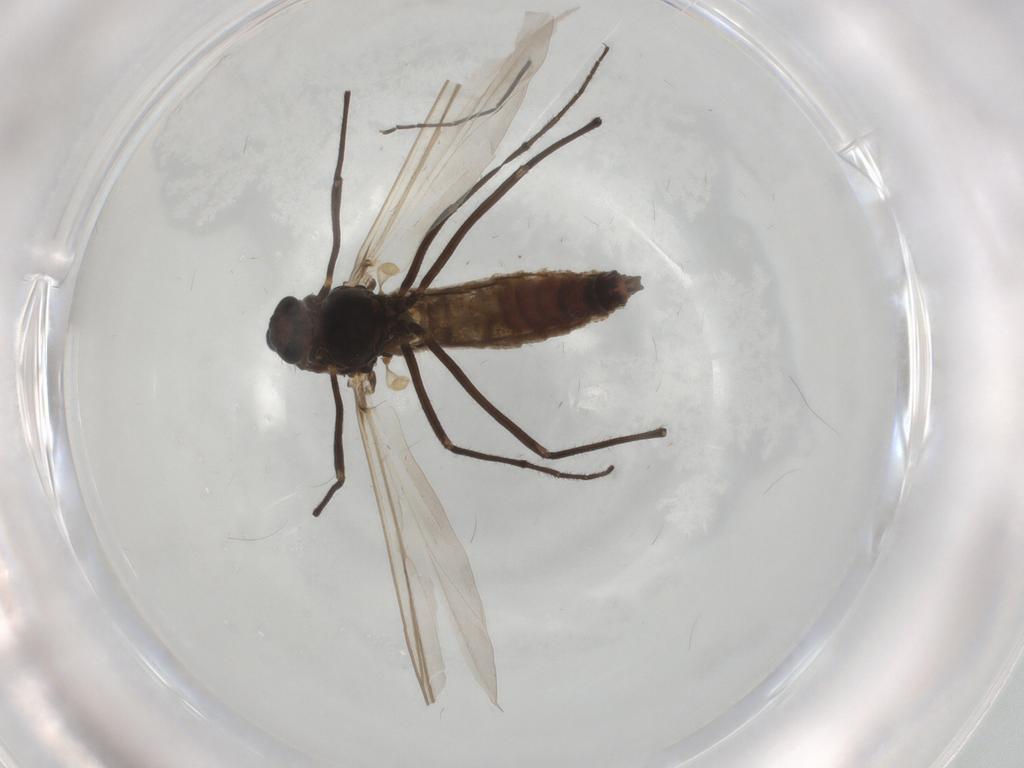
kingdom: Animalia
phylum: Arthropoda
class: Insecta
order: Diptera
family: Chironomidae
